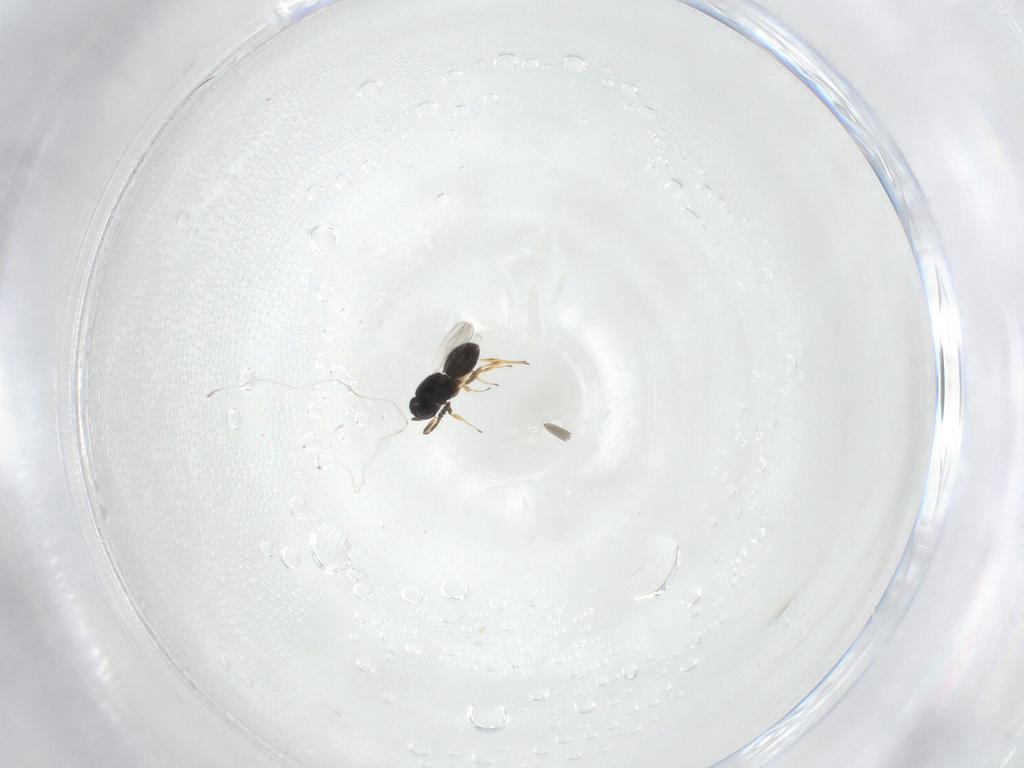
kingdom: Animalia
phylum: Arthropoda
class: Insecta
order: Hymenoptera
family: Scelionidae
